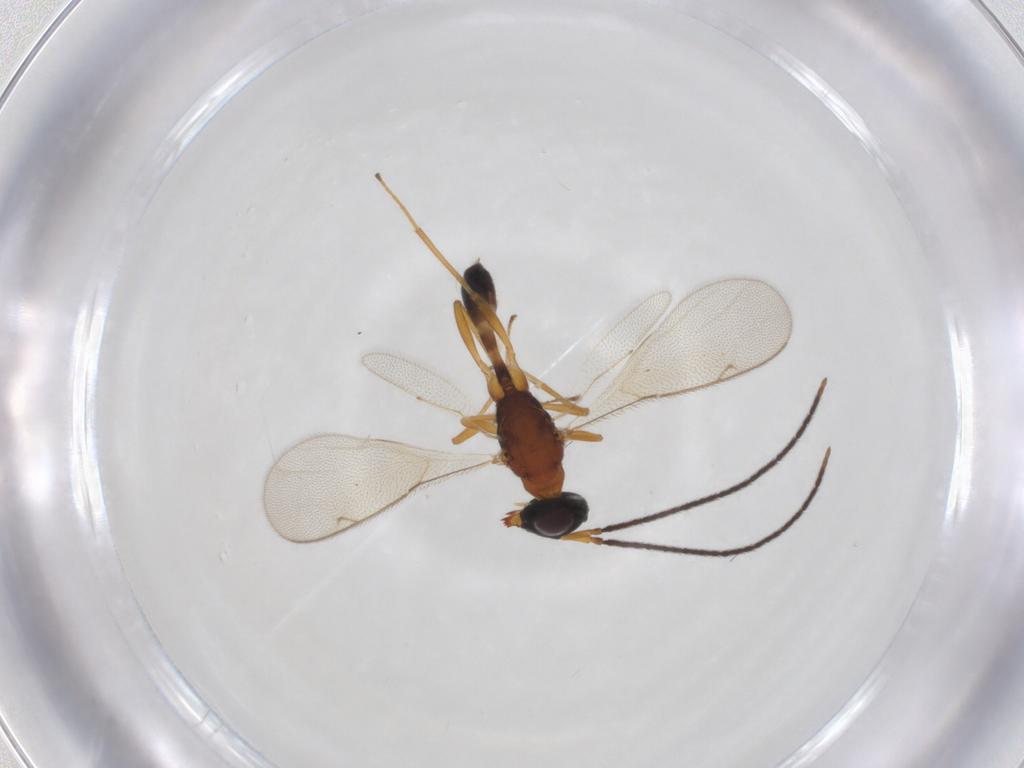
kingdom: Animalia
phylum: Arthropoda
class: Insecta
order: Hymenoptera
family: Pteromalidae
